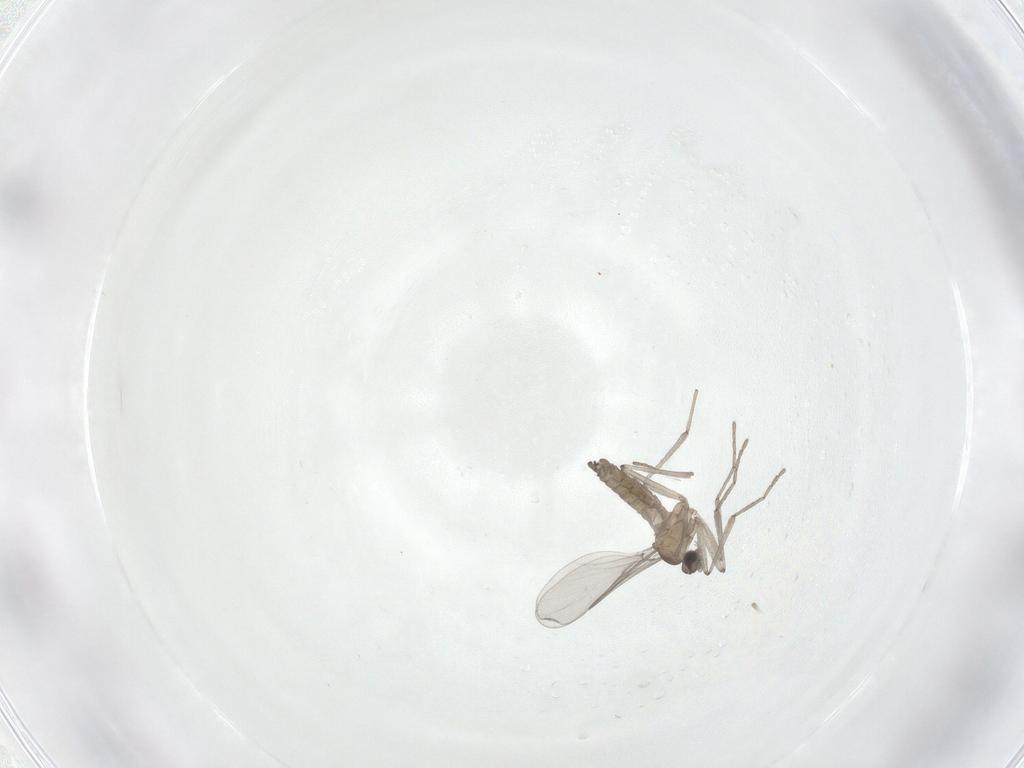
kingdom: Animalia
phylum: Arthropoda
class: Insecta
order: Diptera
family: Cecidomyiidae
